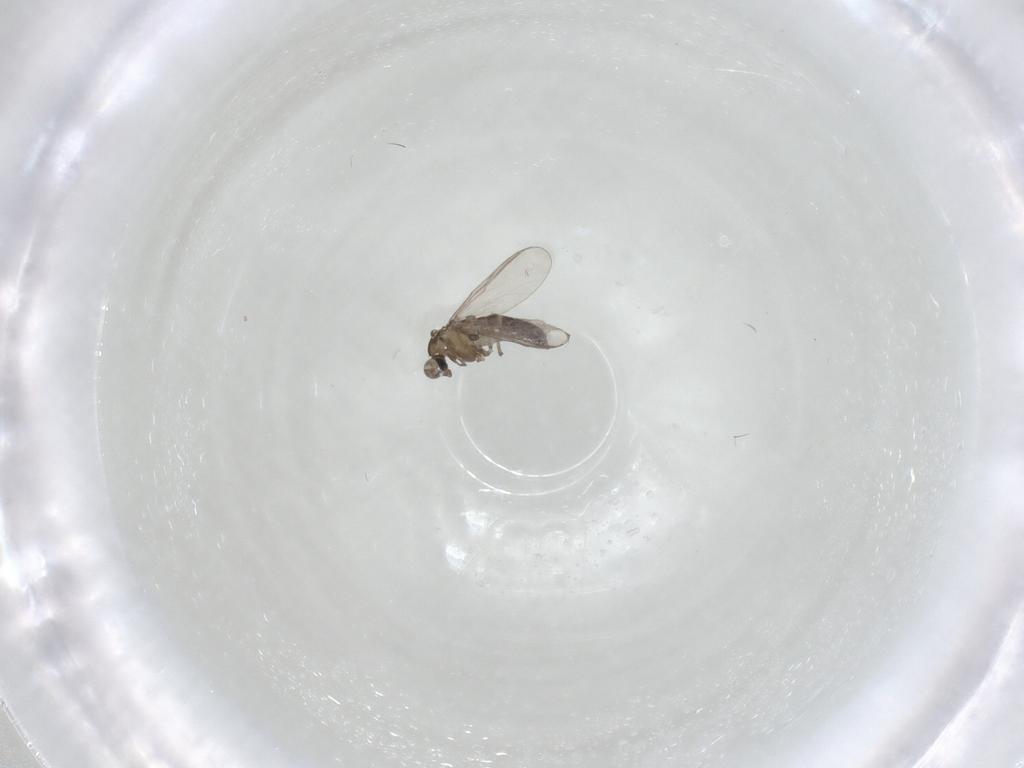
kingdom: Animalia
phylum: Arthropoda
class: Insecta
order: Diptera
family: Chironomidae
